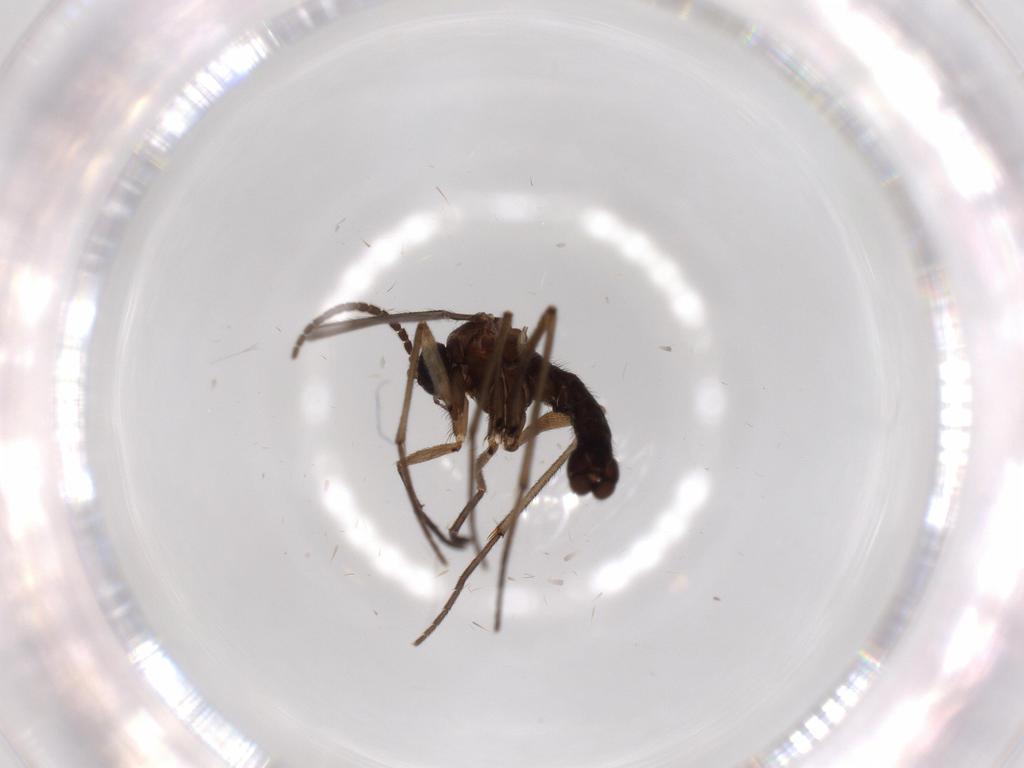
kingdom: Animalia
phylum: Arthropoda
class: Insecta
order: Diptera
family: Sciaridae
